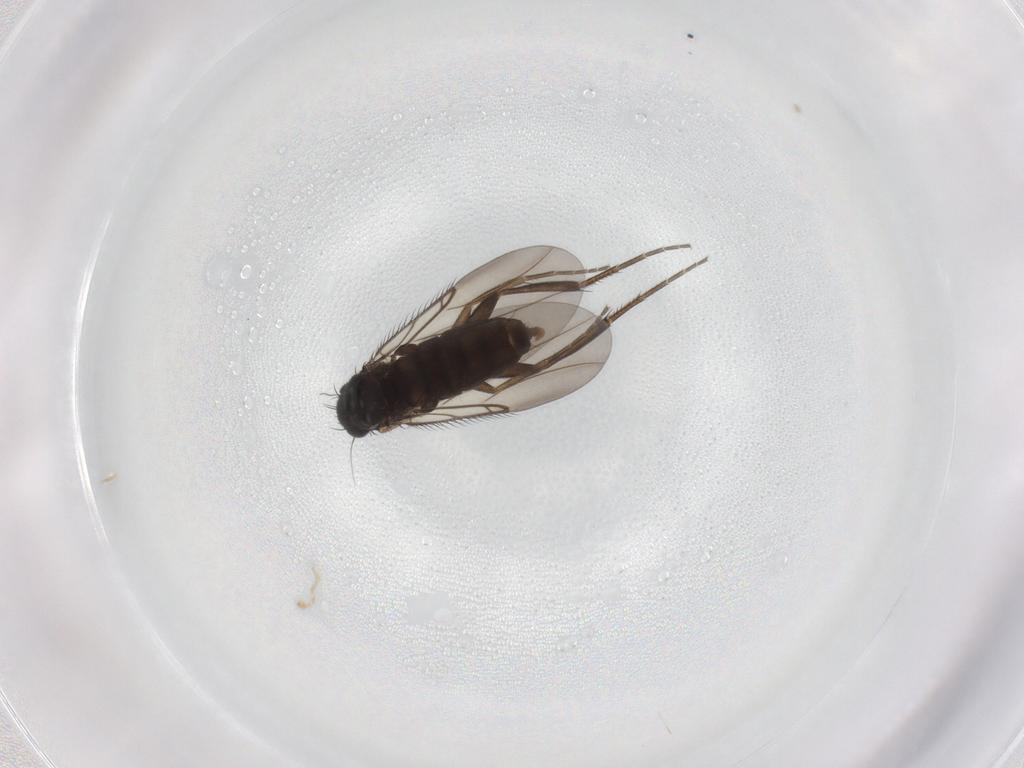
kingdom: Animalia
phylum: Arthropoda
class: Insecta
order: Diptera
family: Phoridae
